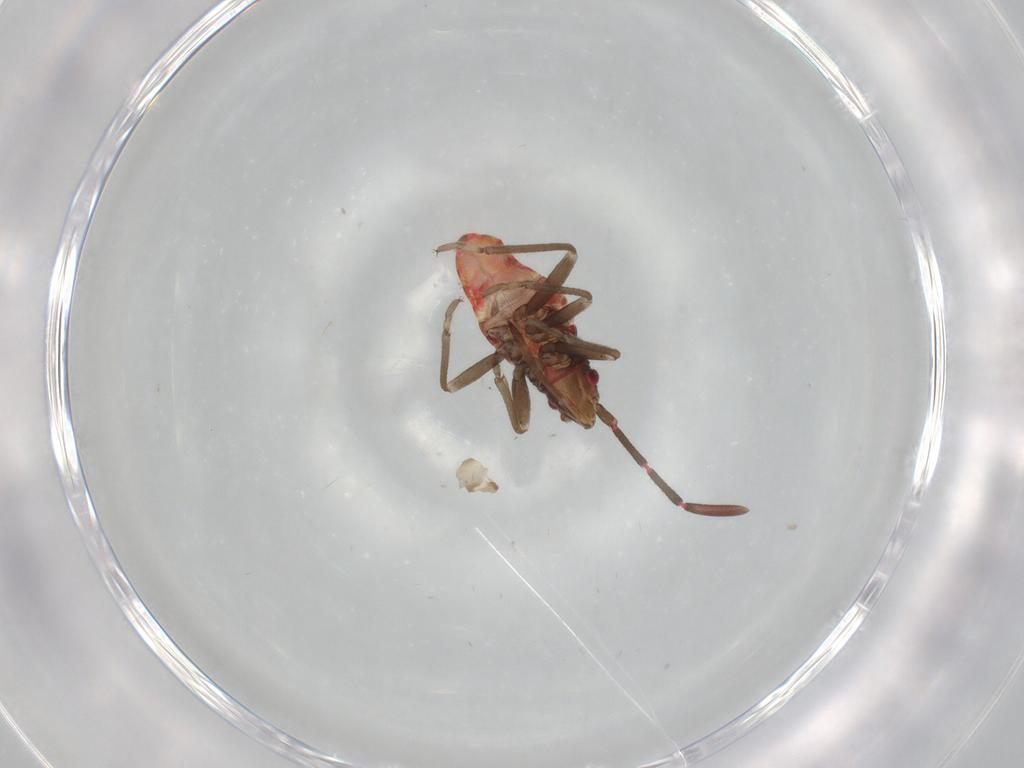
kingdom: Animalia
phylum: Arthropoda
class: Insecta
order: Hemiptera
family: Rhyparochromidae
